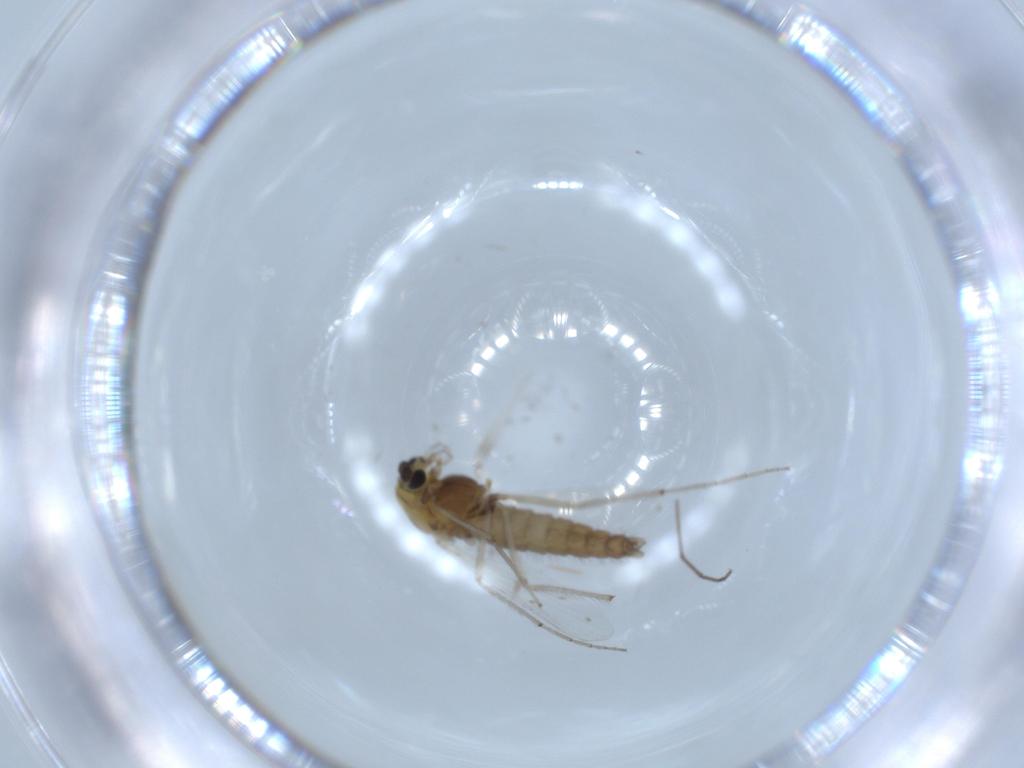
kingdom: Animalia
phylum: Arthropoda
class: Insecta
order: Diptera
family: Chironomidae
